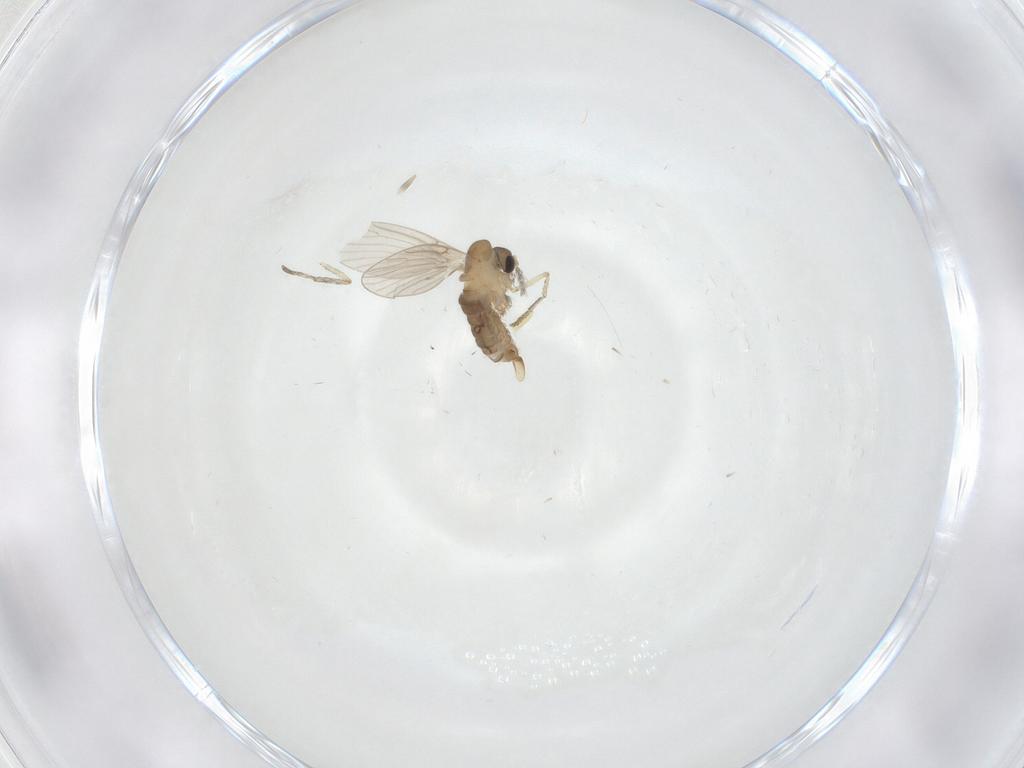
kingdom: Animalia
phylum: Arthropoda
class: Insecta
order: Diptera
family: Psychodidae
